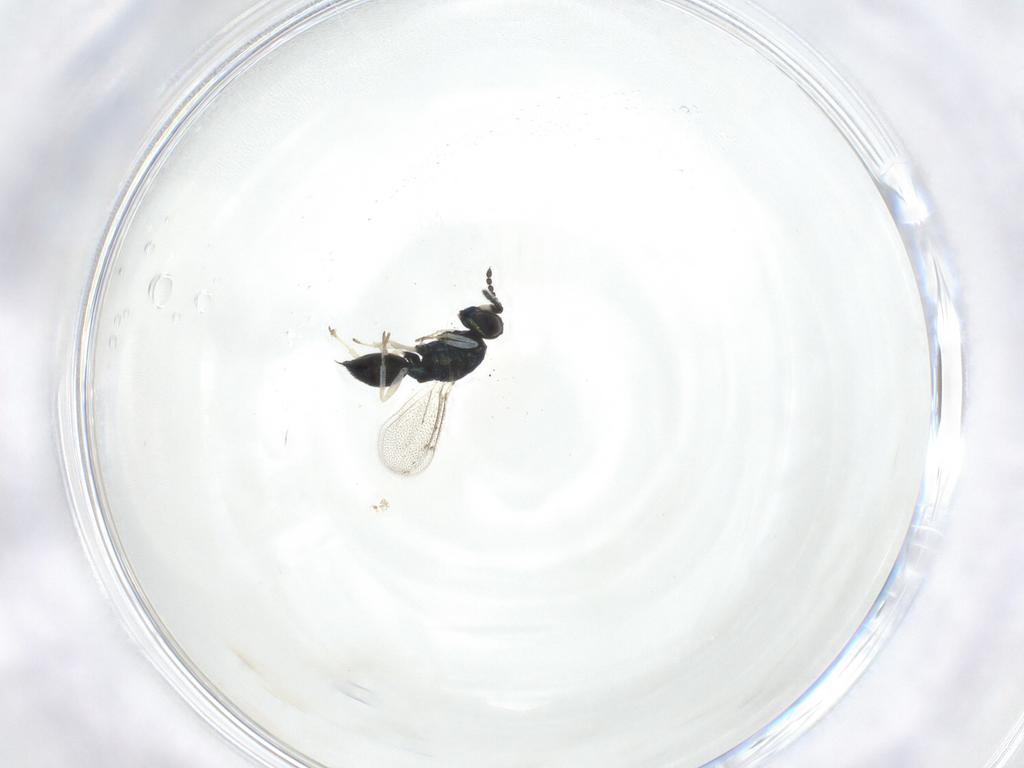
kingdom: Animalia
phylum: Arthropoda
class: Insecta
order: Hymenoptera
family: Eulophidae
